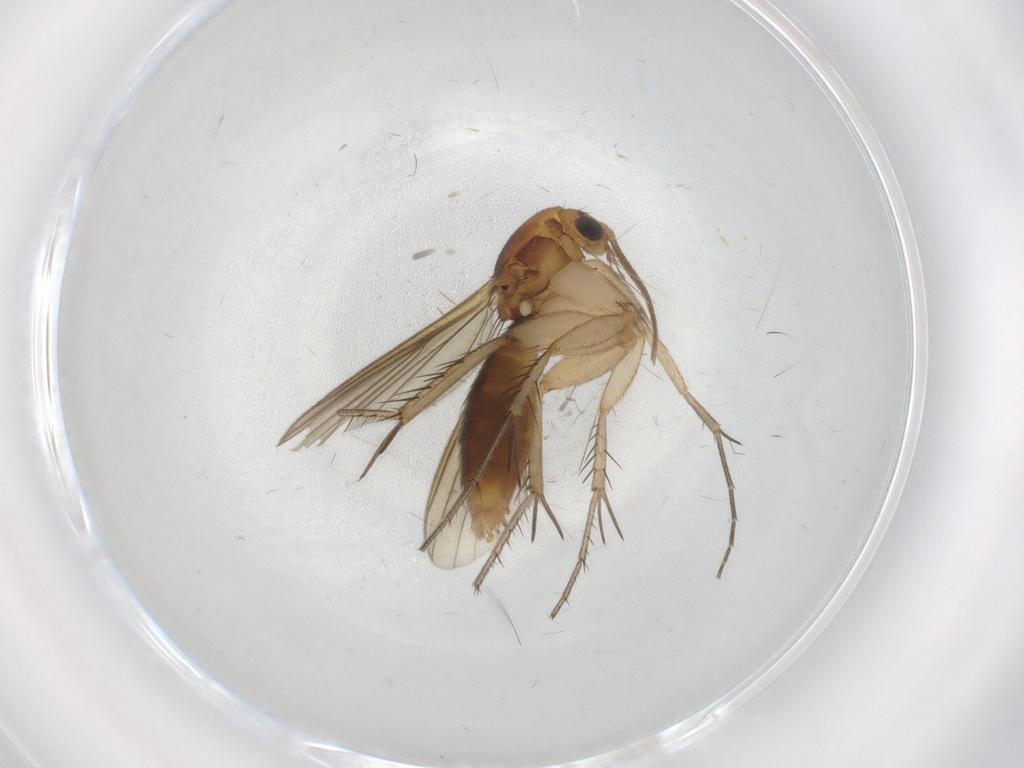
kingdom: Animalia
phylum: Arthropoda
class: Insecta
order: Diptera
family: Mycetophilidae
